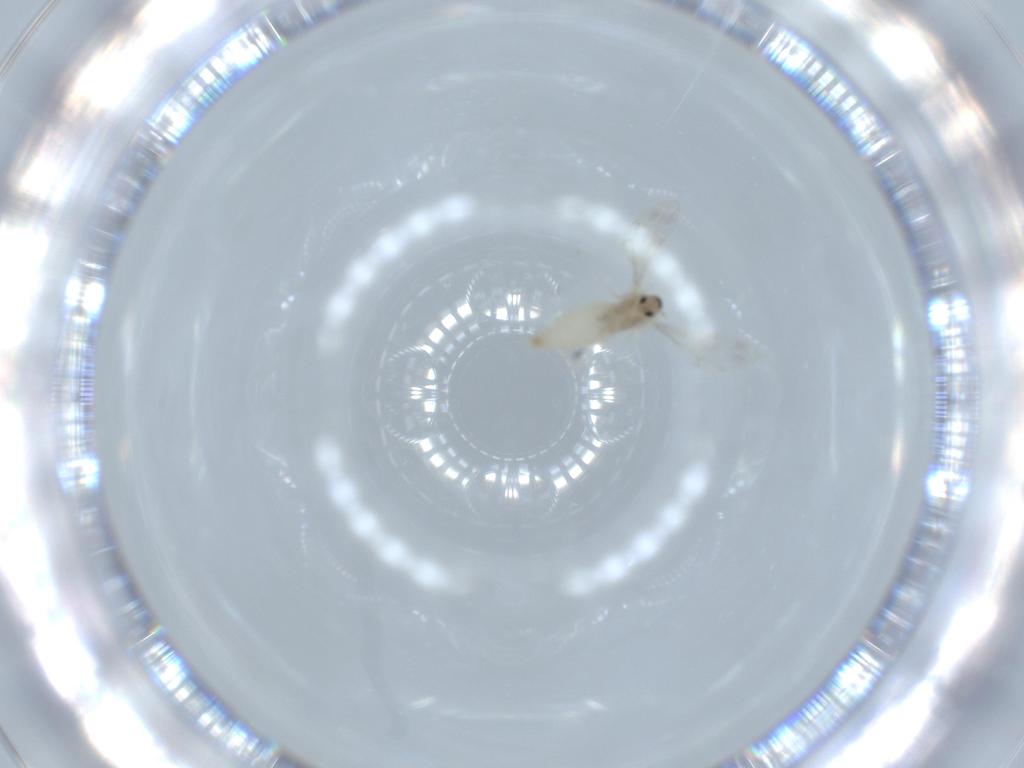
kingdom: Animalia
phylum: Arthropoda
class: Insecta
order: Diptera
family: Cecidomyiidae
